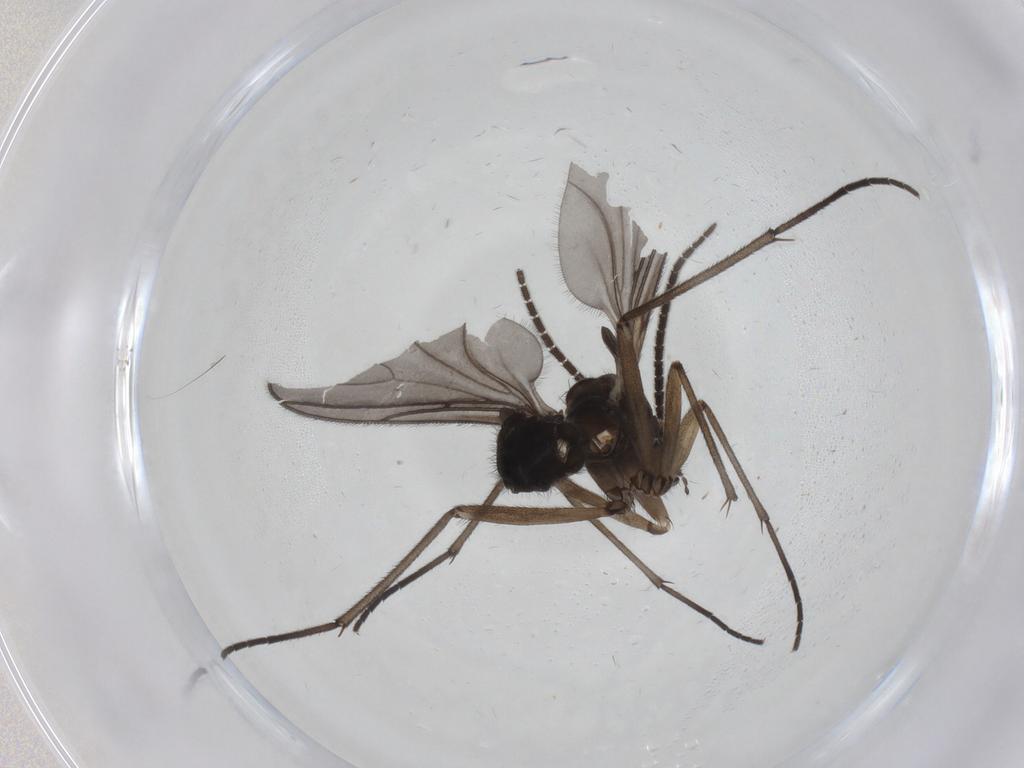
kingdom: Animalia
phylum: Arthropoda
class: Insecta
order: Diptera
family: Sciaridae
